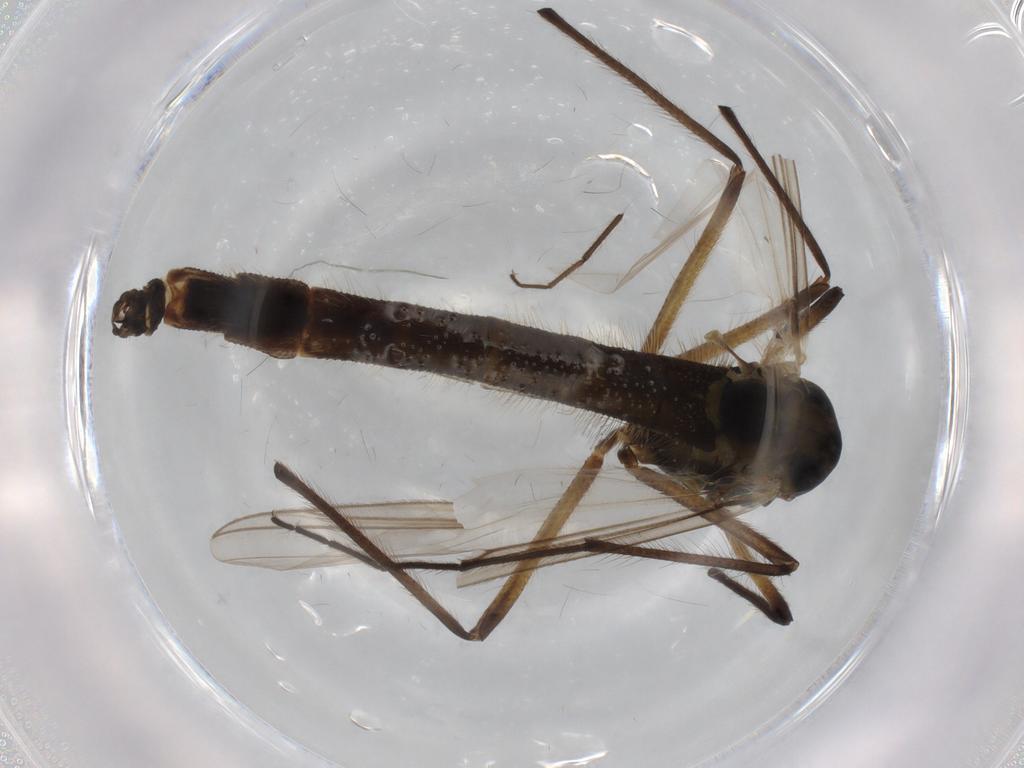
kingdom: Animalia
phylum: Arthropoda
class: Insecta
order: Diptera
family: Chironomidae
